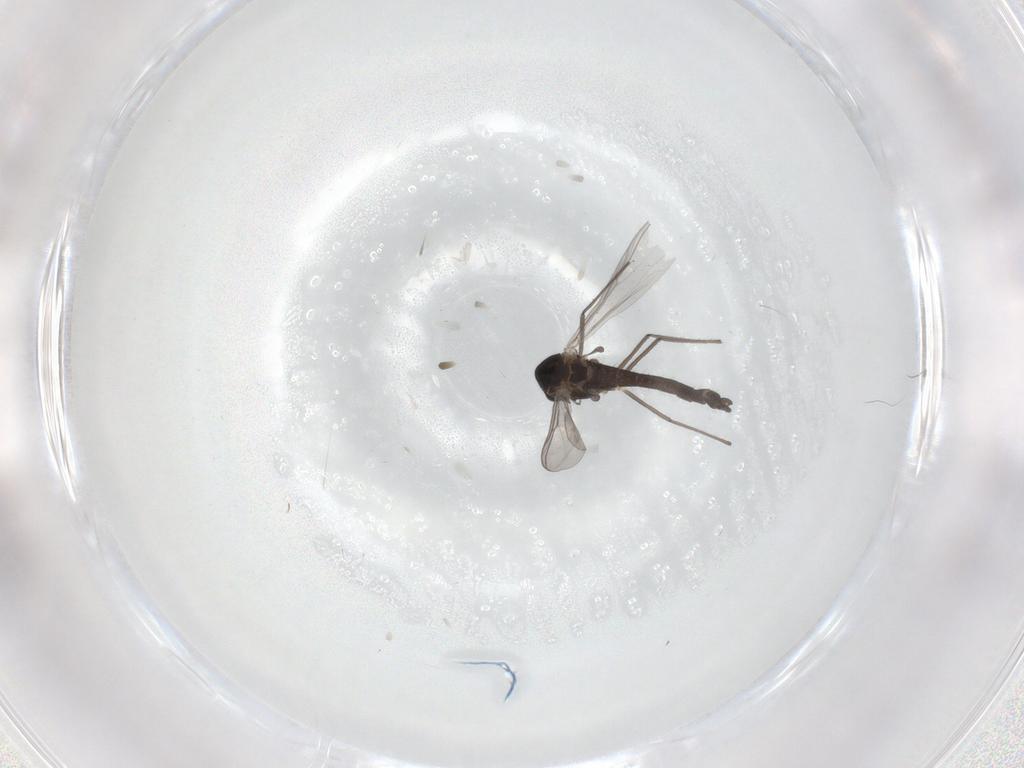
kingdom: Animalia
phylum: Arthropoda
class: Insecta
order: Diptera
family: Chironomidae
